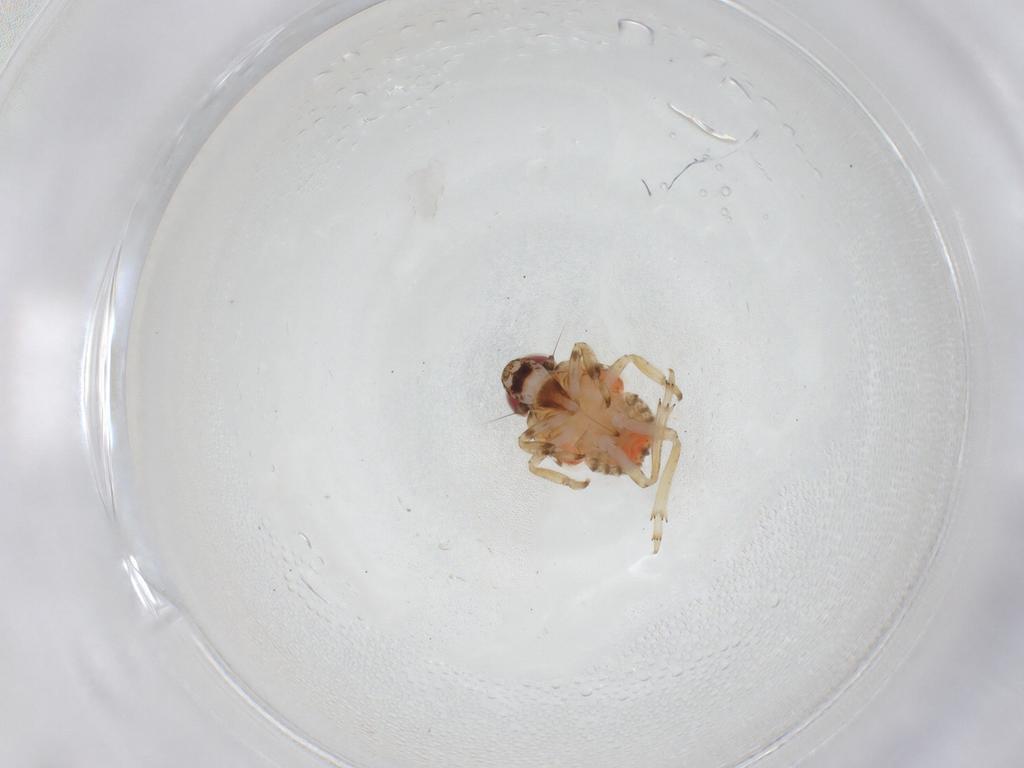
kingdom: Animalia
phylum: Arthropoda
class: Insecta
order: Hemiptera
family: Issidae
